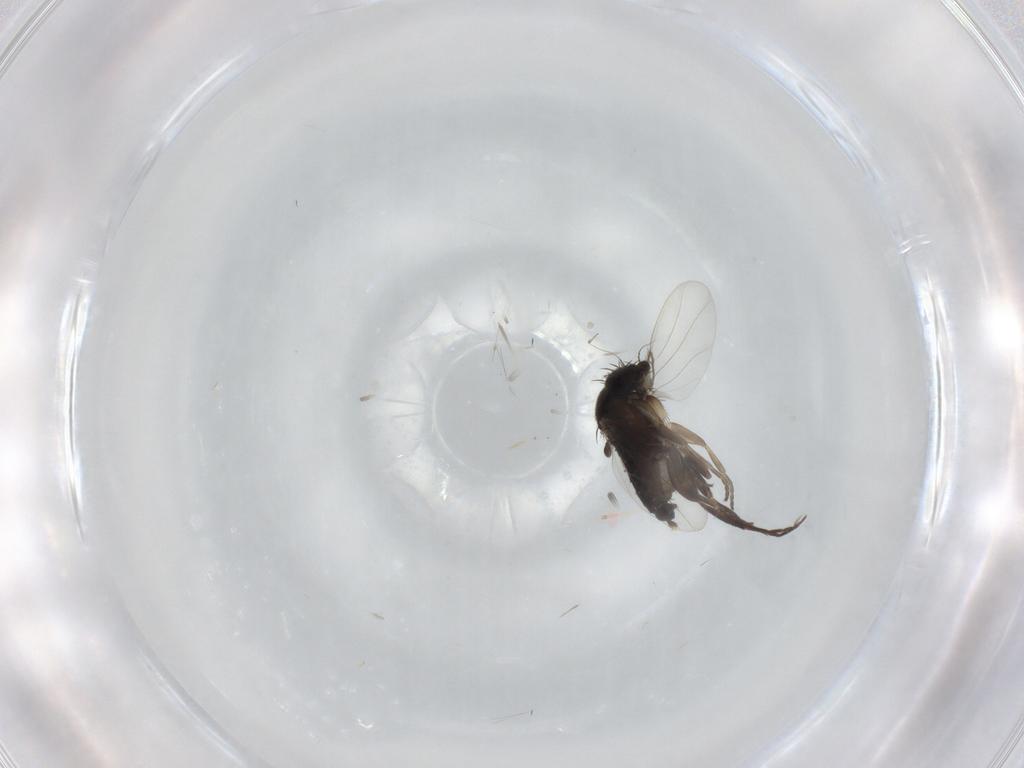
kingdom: Animalia
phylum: Arthropoda
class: Insecta
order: Diptera
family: Phoridae
